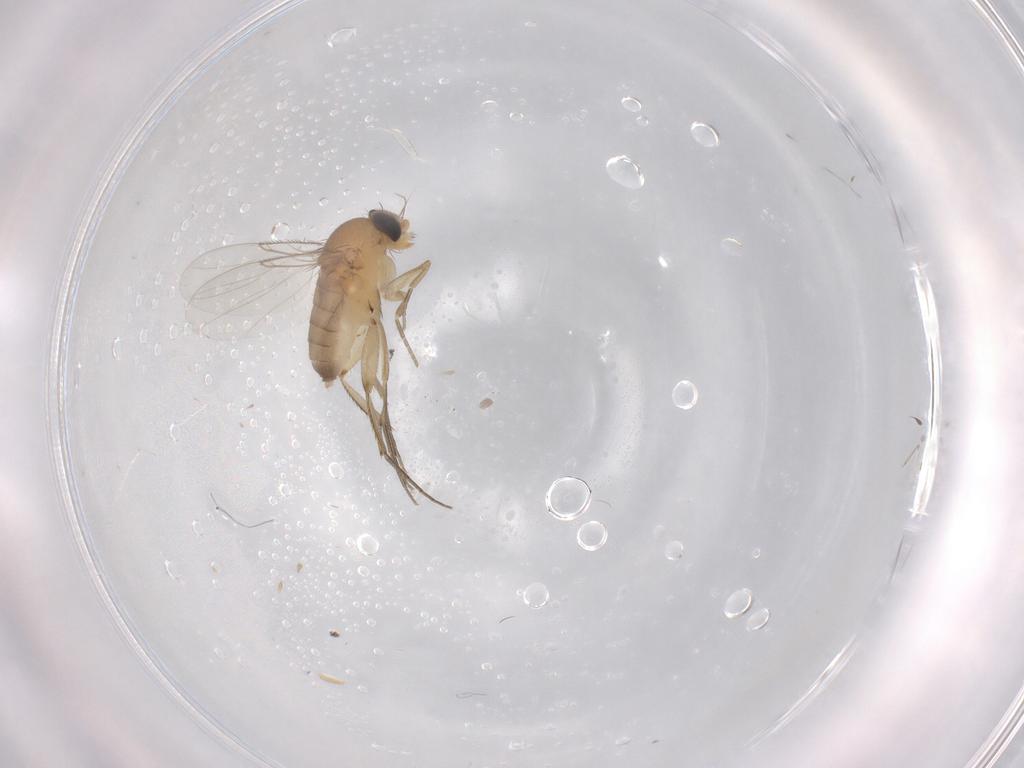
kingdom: Animalia
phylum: Arthropoda
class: Insecta
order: Diptera
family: Phoridae
